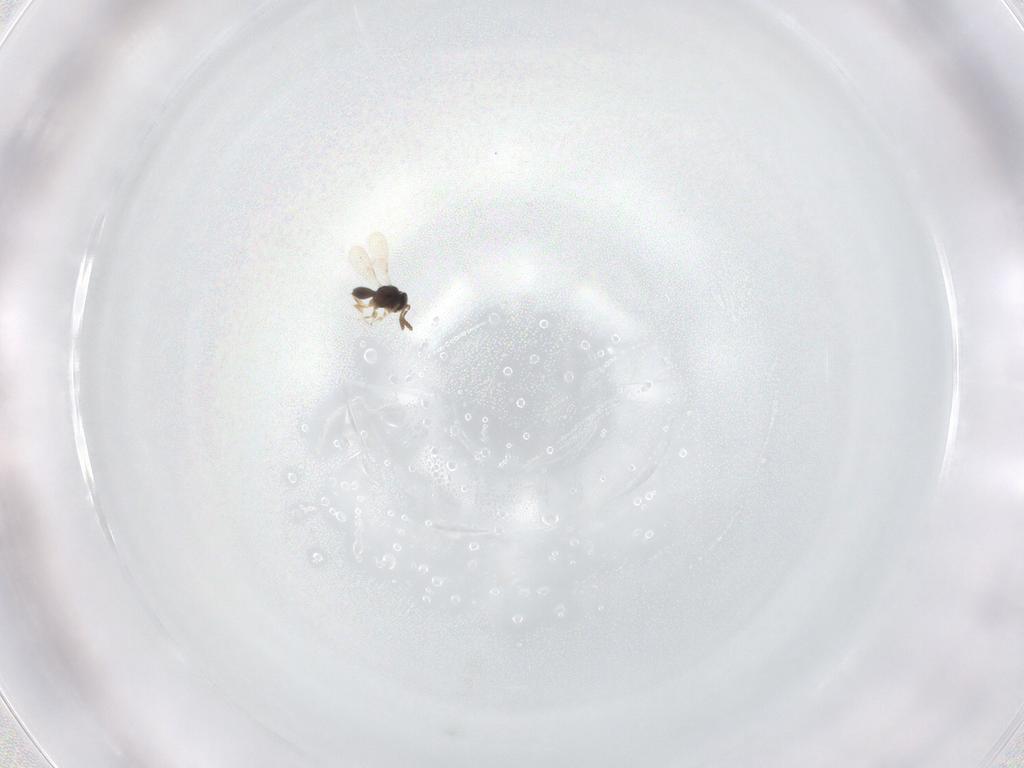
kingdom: Animalia
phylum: Arthropoda
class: Insecta
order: Hymenoptera
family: Scelionidae
